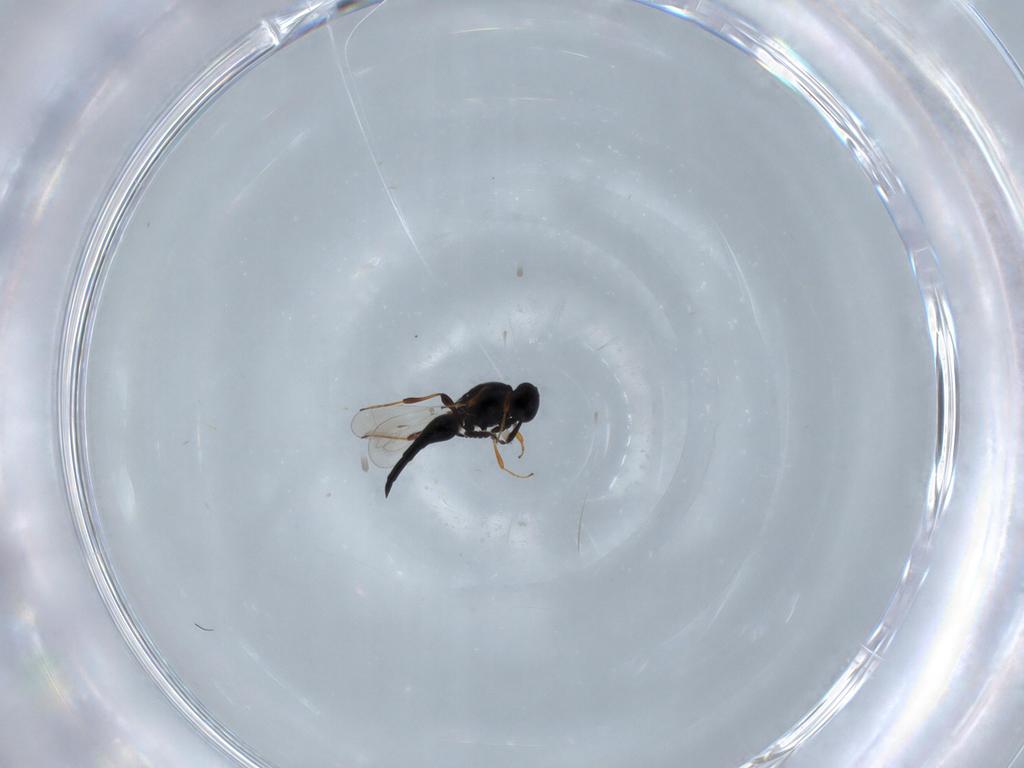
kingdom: Animalia
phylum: Arthropoda
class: Insecta
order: Hymenoptera
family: Platygastridae
